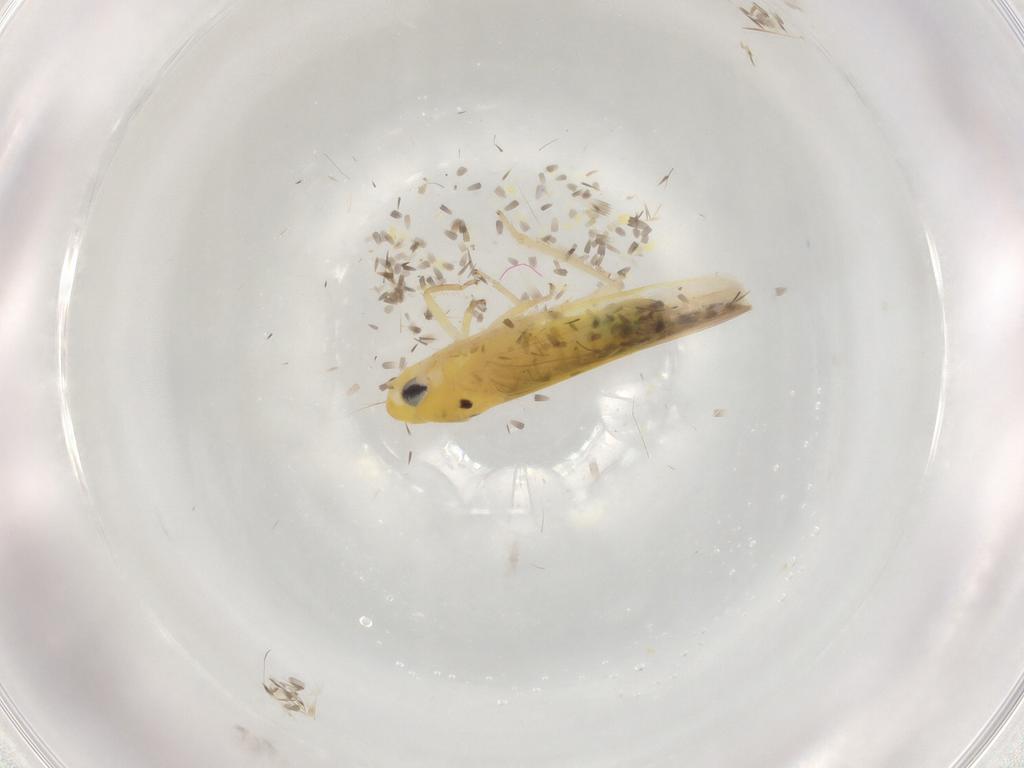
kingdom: Animalia
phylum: Arthropoda
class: Insecta
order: Hemiptera
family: Cicadellidae
